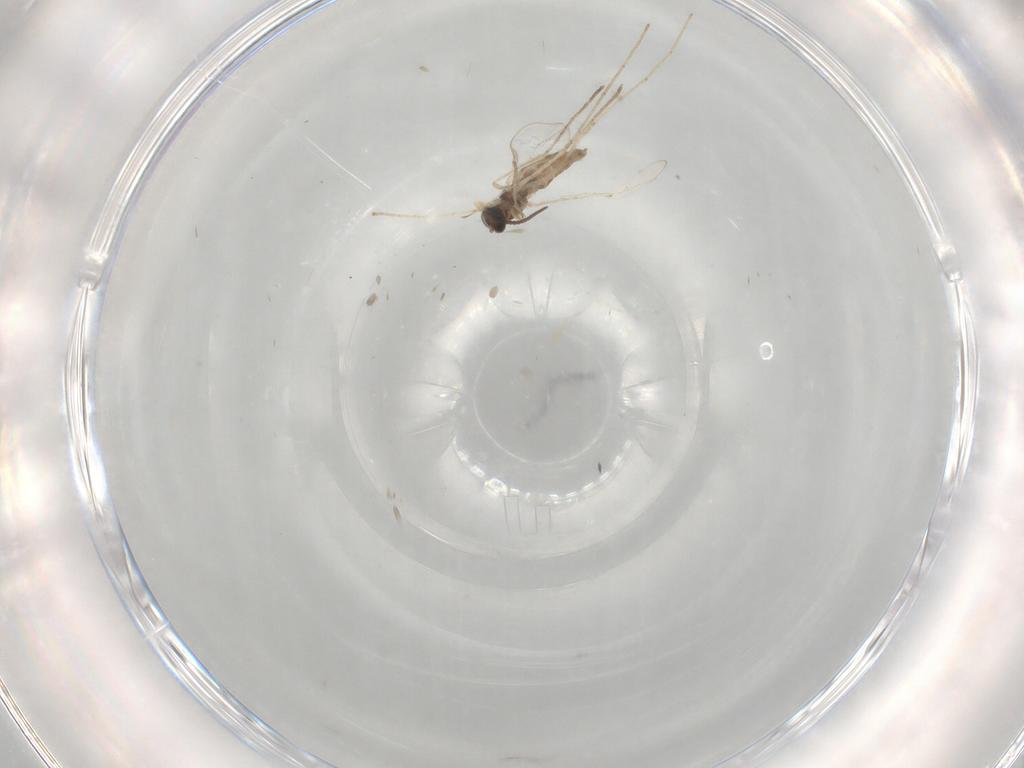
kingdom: Animalia
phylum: Arthropoda
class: Insecta
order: Diptera
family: Cecidomyiidae
